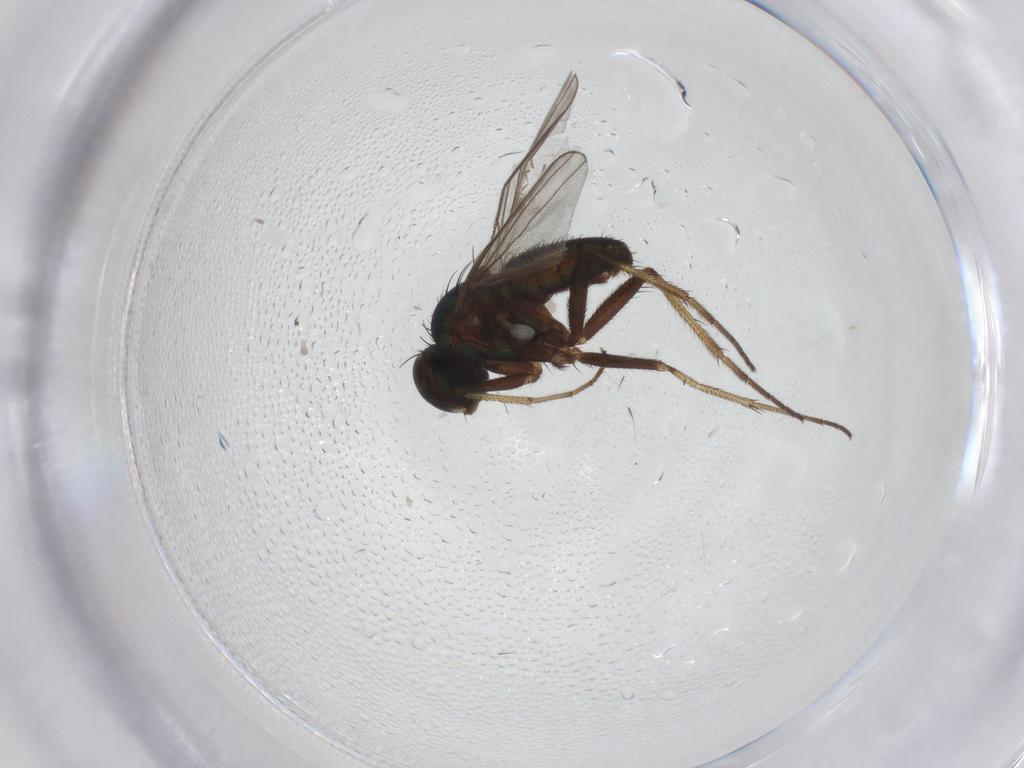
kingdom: Animalia
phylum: Arthropoda
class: Insecta
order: Diptera
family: Dolichopodidae
